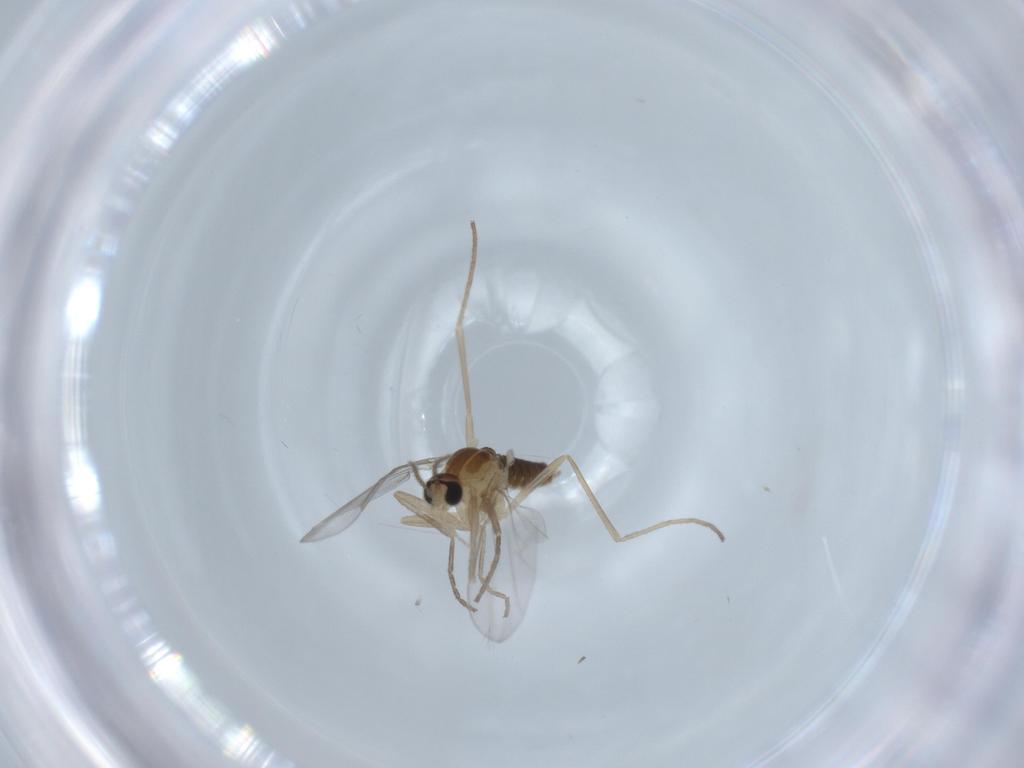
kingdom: Animalia
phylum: Arthropoda
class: Insecta
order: Diptera
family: Cecidomyiidae
